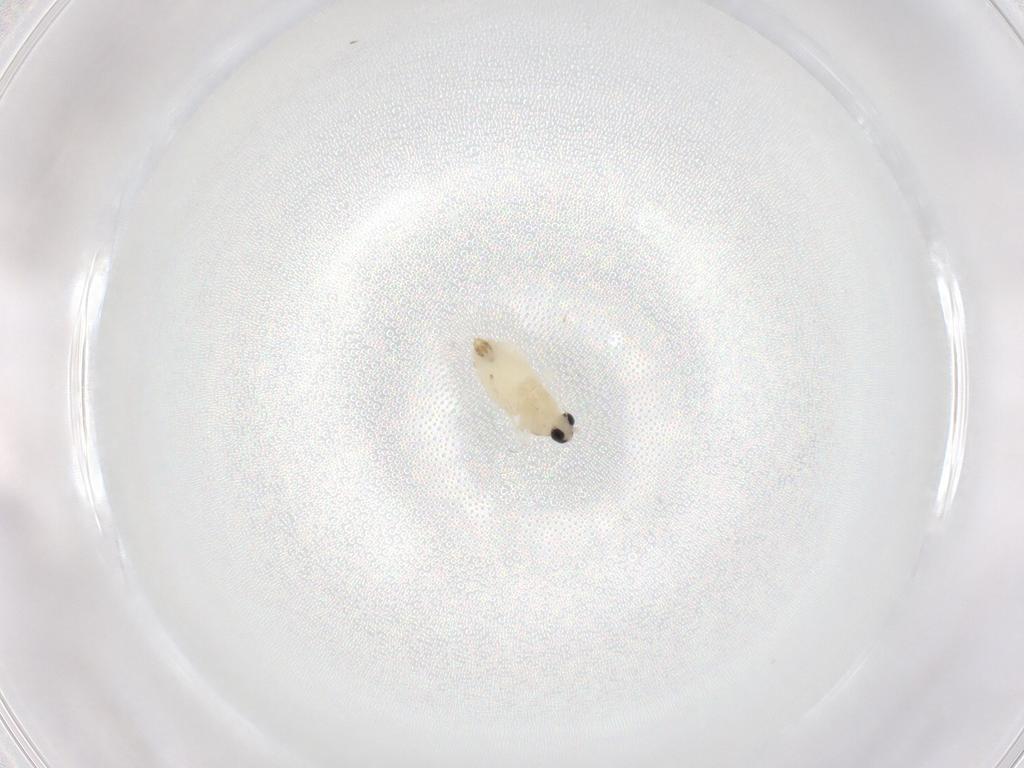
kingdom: Animalia
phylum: Arthropoda
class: Insecta
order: Diptera
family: Cecidomyiidae
